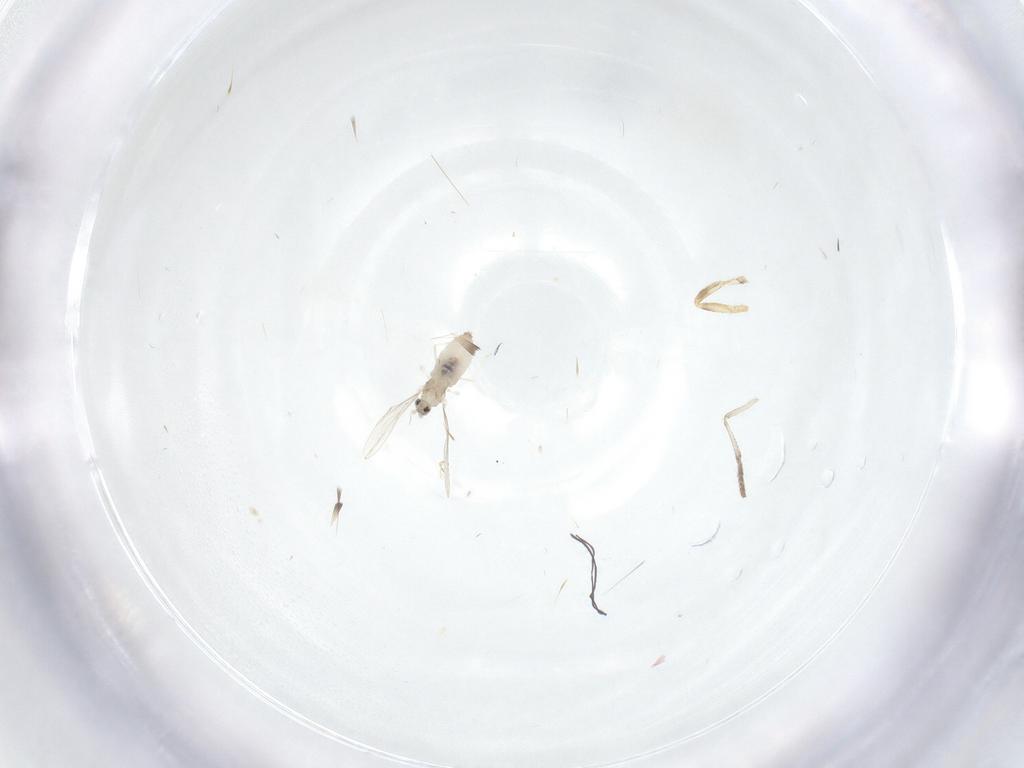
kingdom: Animalia
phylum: Arthropoda
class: Insecta
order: Diptera
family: Cecidomyiidae
